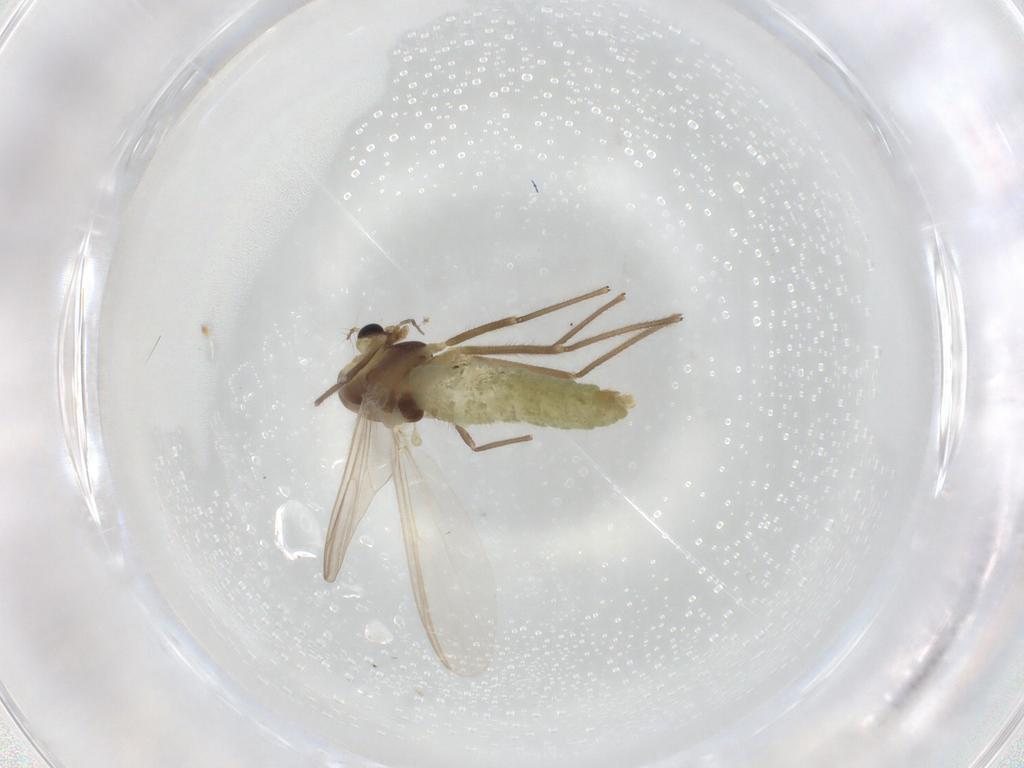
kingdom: Animalia
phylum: Arthropoda
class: Insecta
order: Diptera
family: Chironomidae
